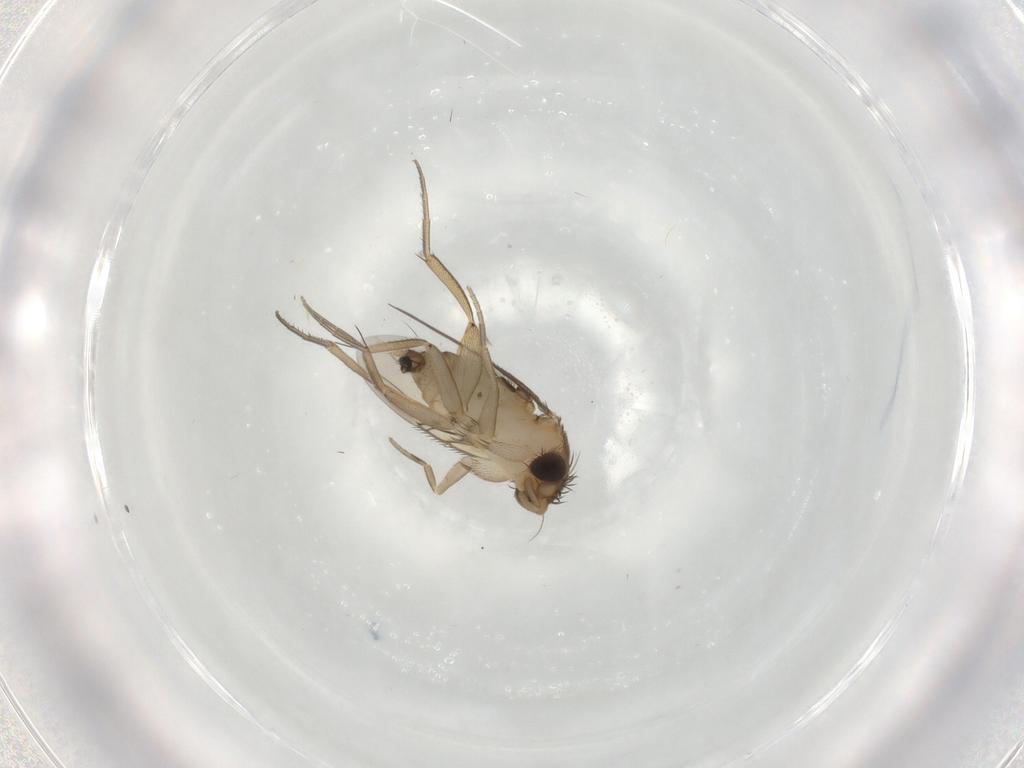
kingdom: Animalia
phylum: Arthropoda
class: Insecta
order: Diptera
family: Phoridae
